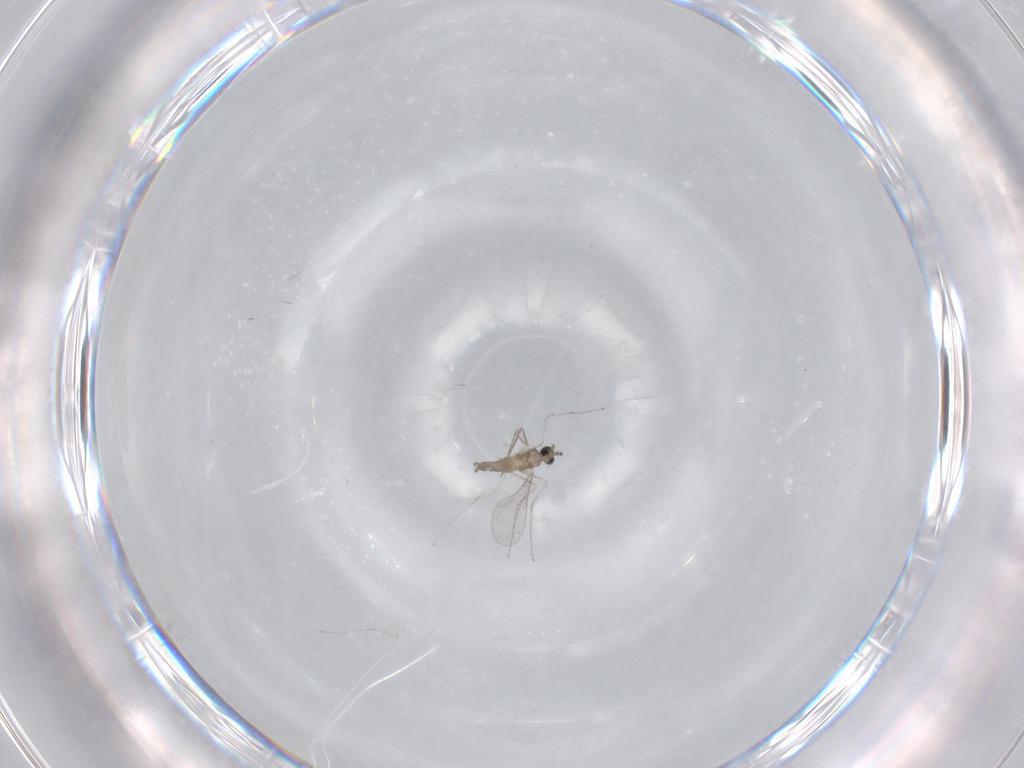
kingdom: Animalia
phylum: Arthropoda
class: Insecta
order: Diptera
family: Cecidomyiidae
